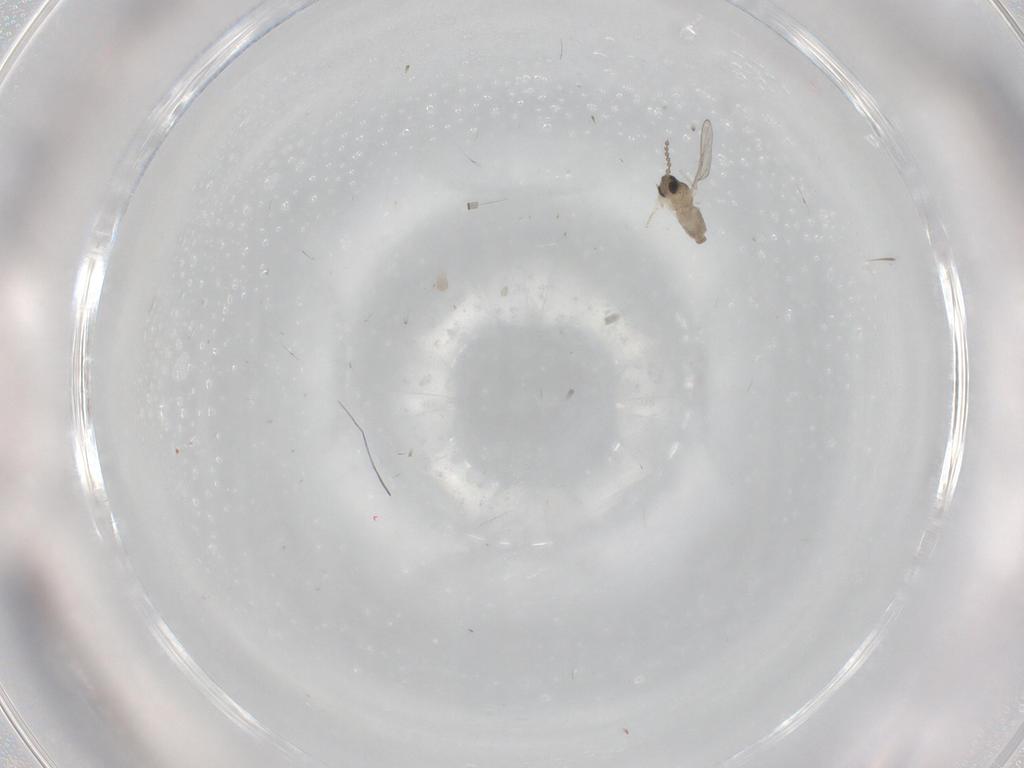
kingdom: Animalia
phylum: Arthropoda
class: Insecta
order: Diptera
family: Cecidomyiidae
